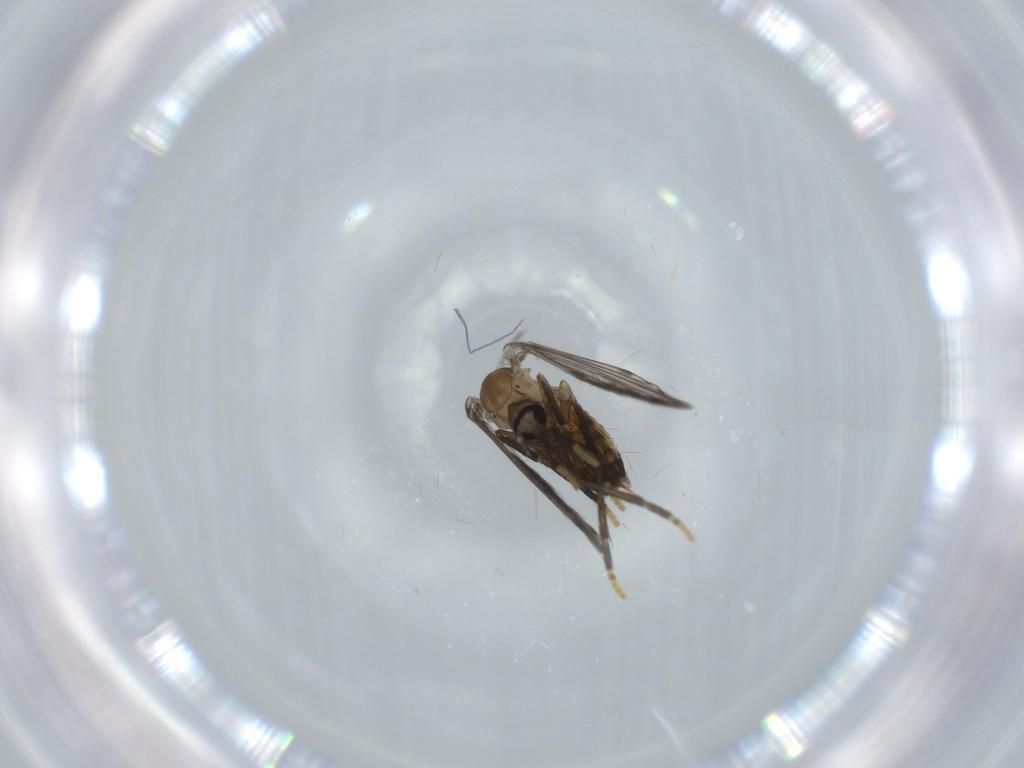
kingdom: Animalia
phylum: Arthropoda
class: Insecta
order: Diptera
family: Psychodidae
